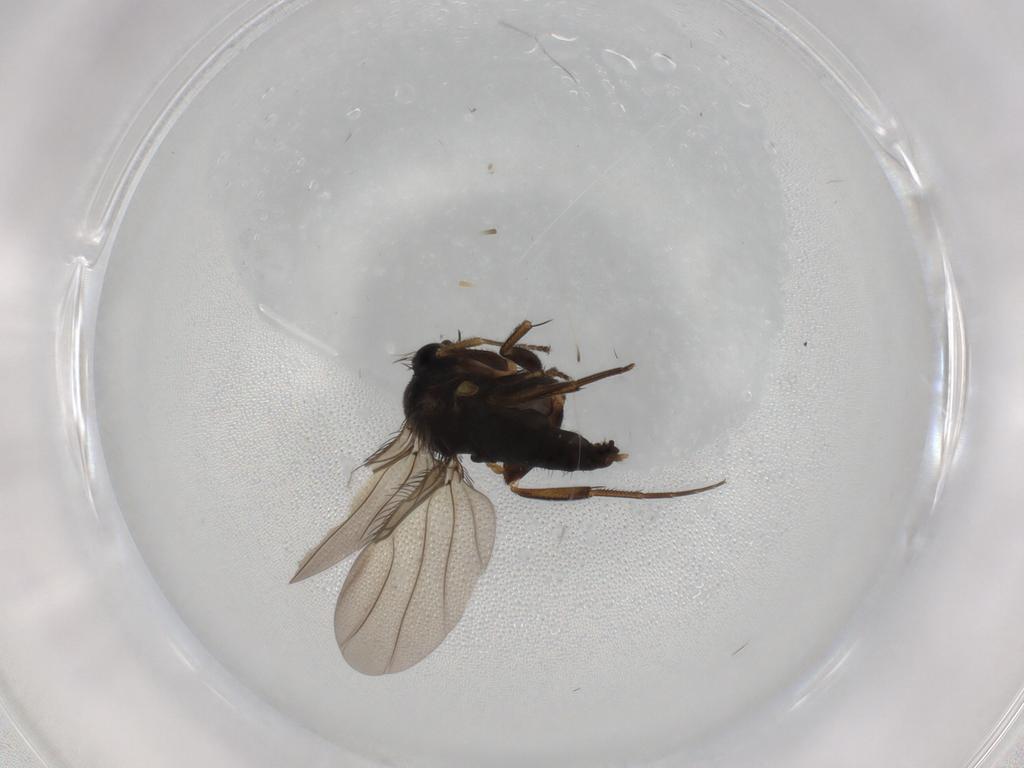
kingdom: Animalia
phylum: Arthropoda
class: Insecta
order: Diptera
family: Phoridae
